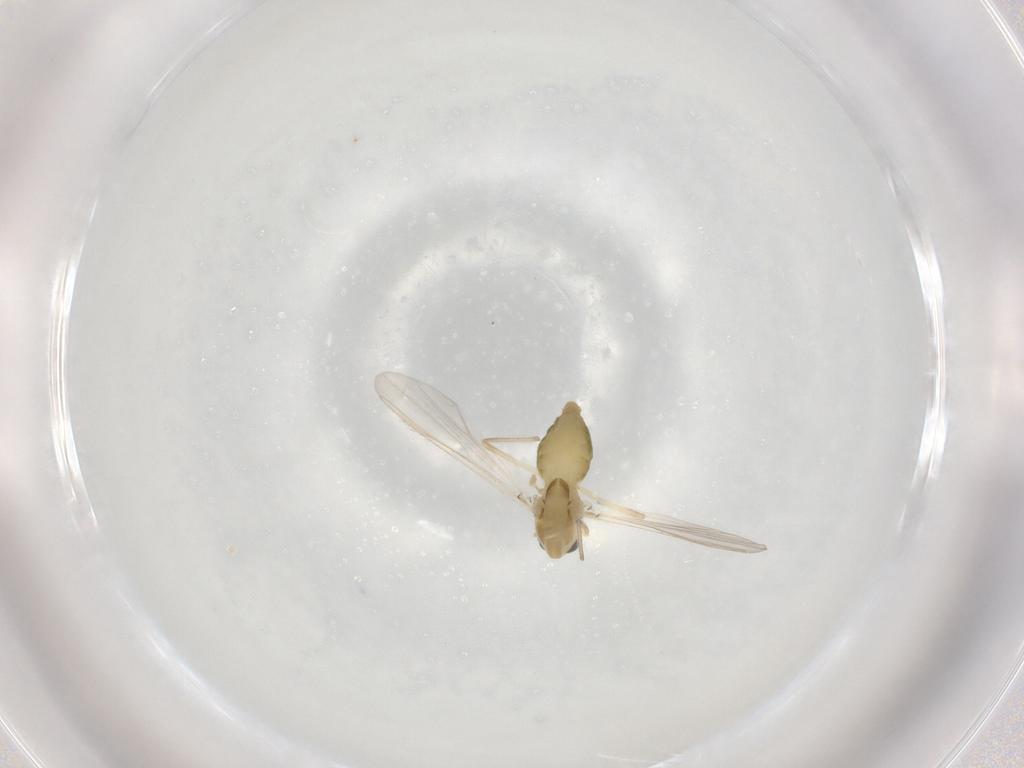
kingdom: Animalia
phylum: Arthropoda
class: Insecta
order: Diptera
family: Chironomidae
